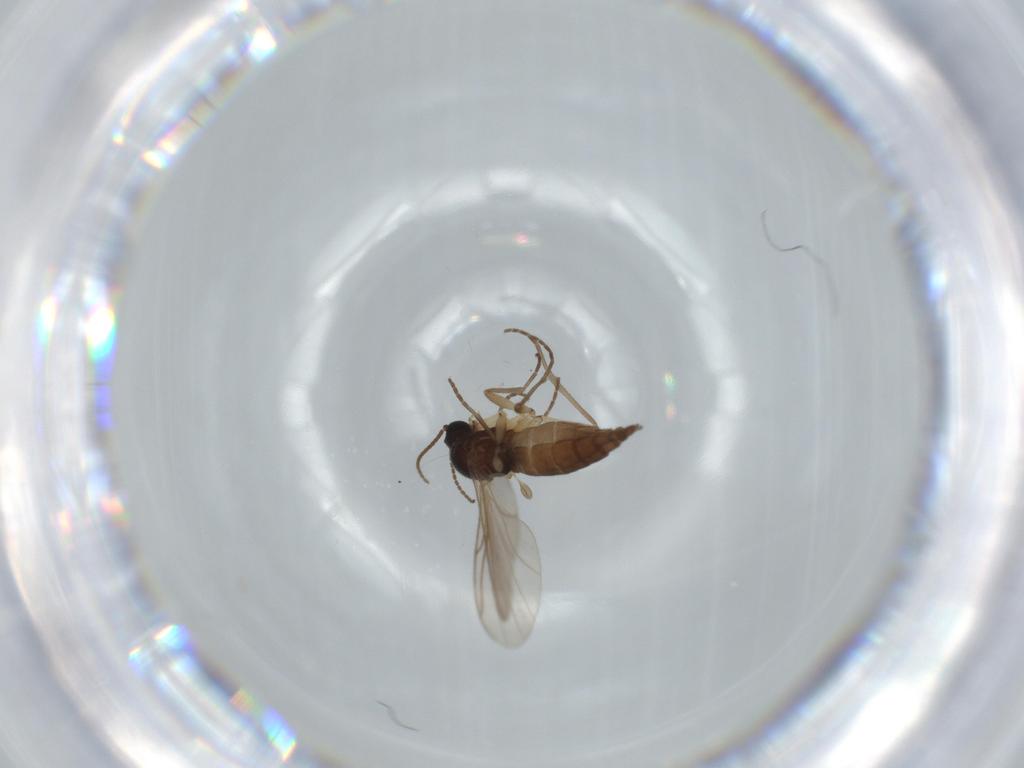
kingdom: Animalia
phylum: Arthropoda
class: Insecta
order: Diptera
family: Sciaridae
